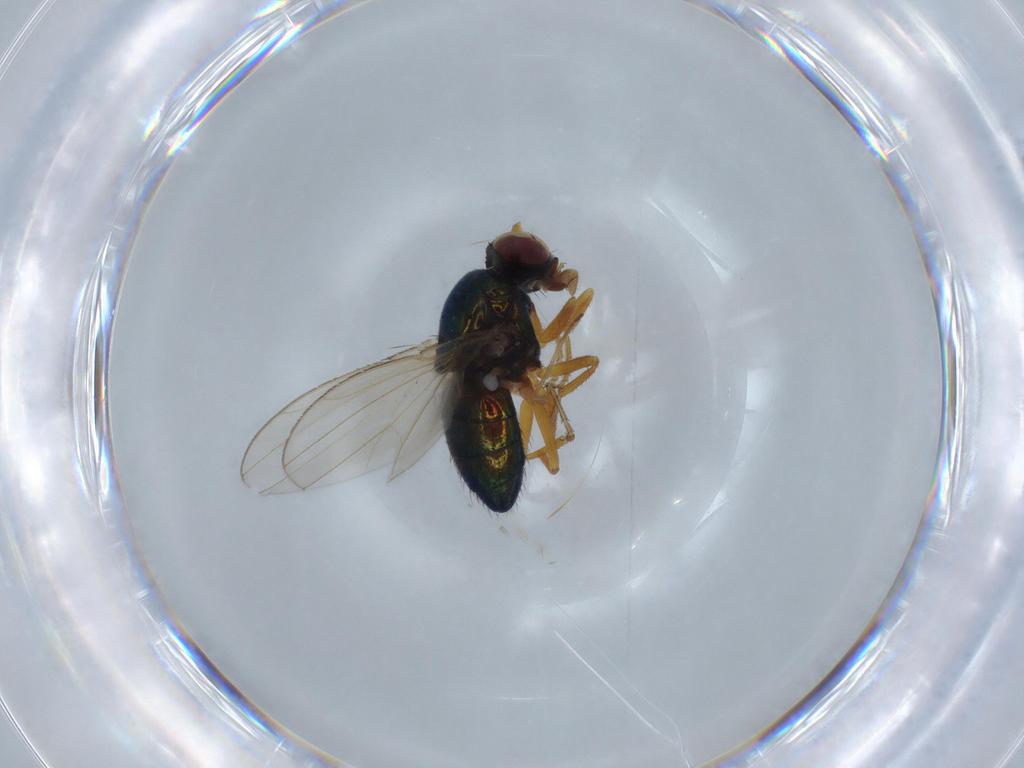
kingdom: Animalia
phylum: Arthropoda
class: Insecta
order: Diptera
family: Ephydridae
